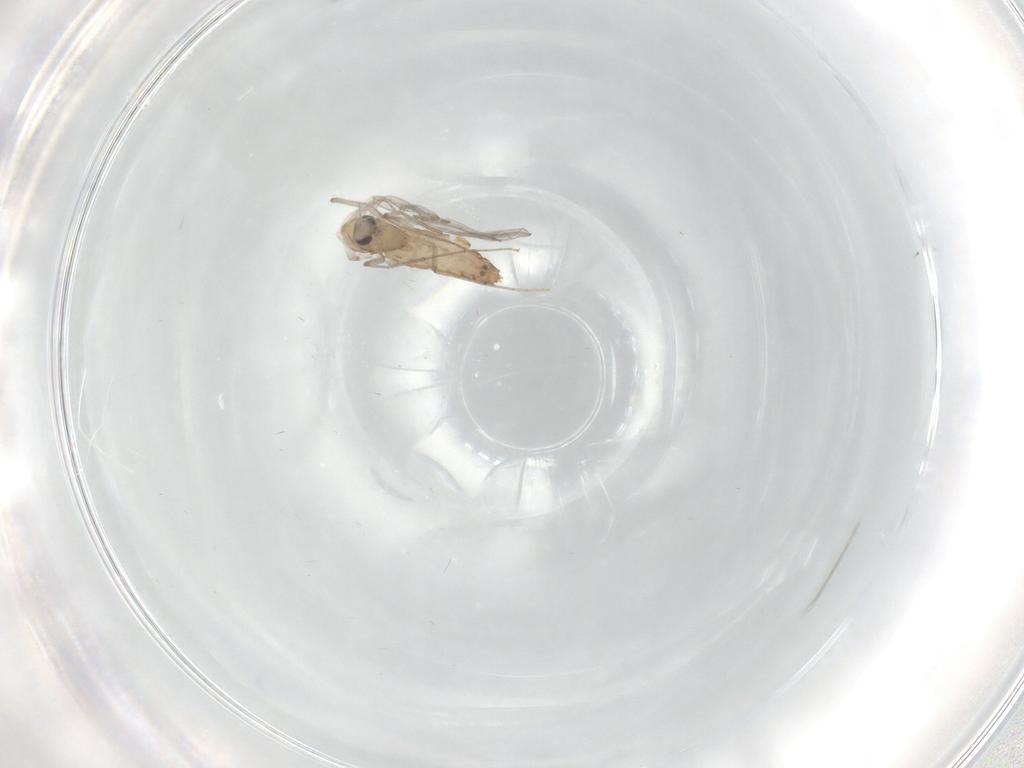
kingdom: Animalia
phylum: Arthropoda
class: Insecta
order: Diptera
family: Chironomidae
